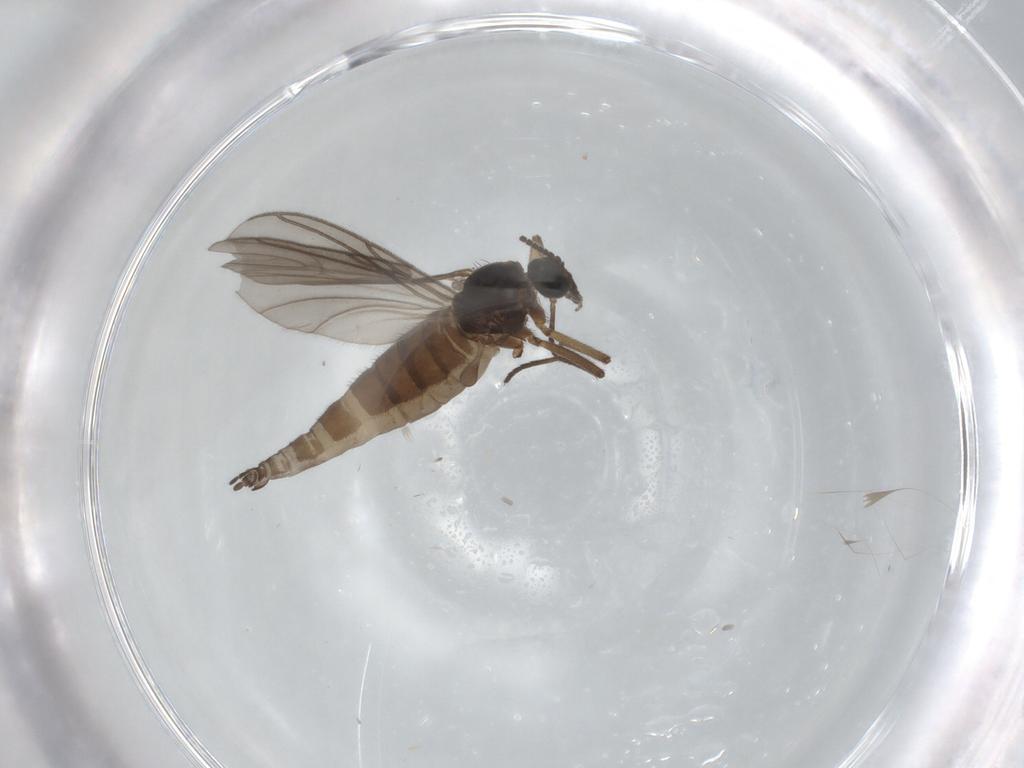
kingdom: Animalia
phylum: Arthropoda
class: Insecta
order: Diptera
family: Sciaridae
